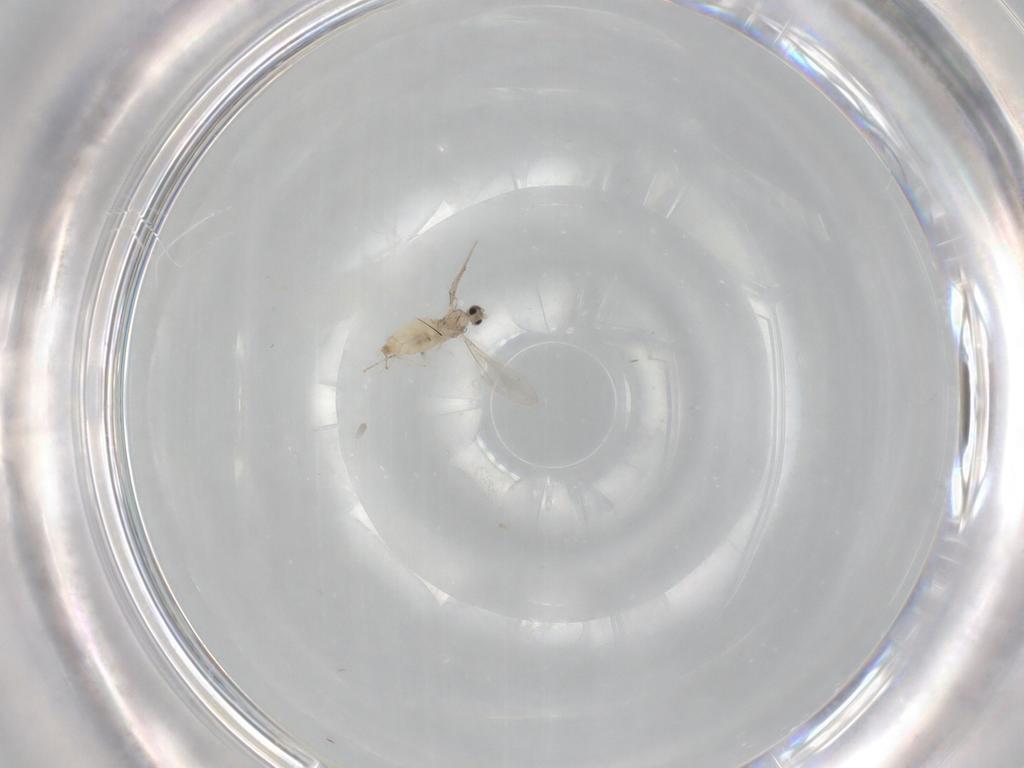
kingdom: Animalia
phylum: Arthropoda
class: Insecta
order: Diptera
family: Cecidomyiidae
